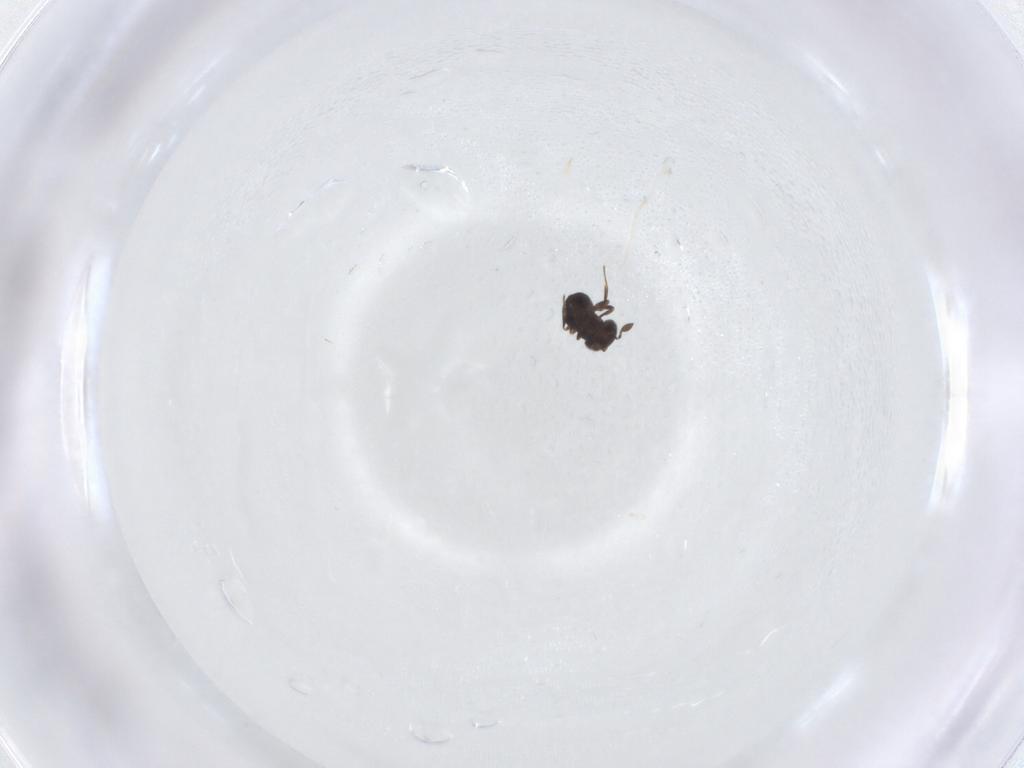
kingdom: Animalia
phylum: Arthropoda
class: Insecta
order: Hymenoptera
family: Scelionidae
